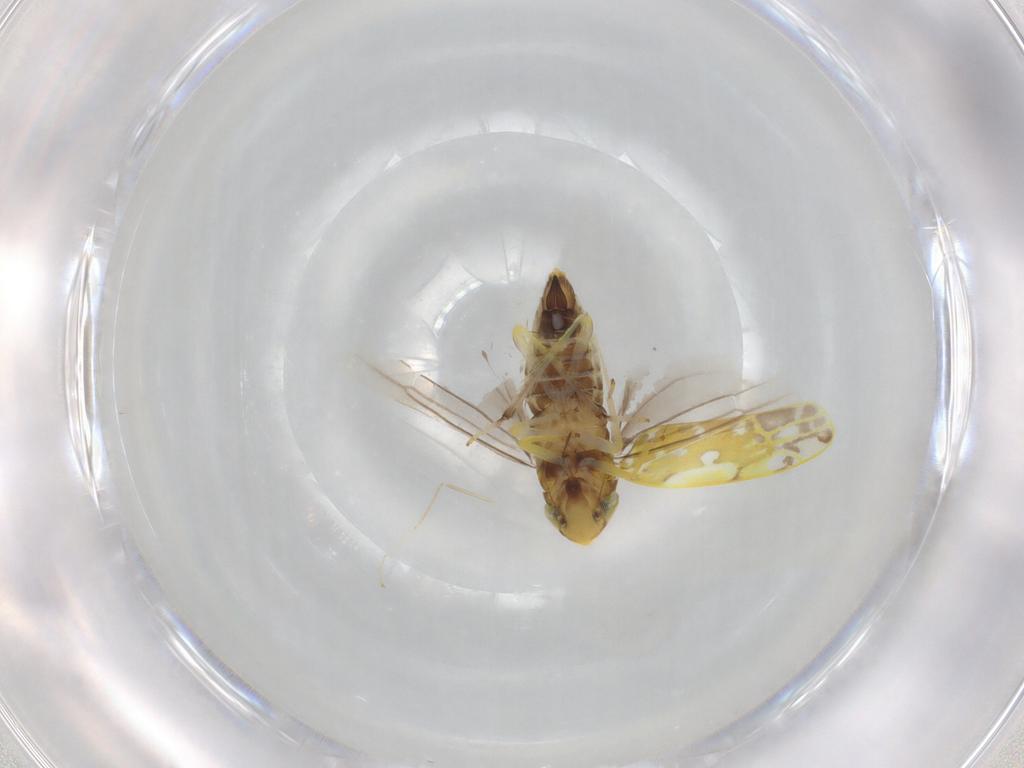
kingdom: Animalia
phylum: Arthropoda
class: Insecta
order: Hemiptera
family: Cicadellidae
